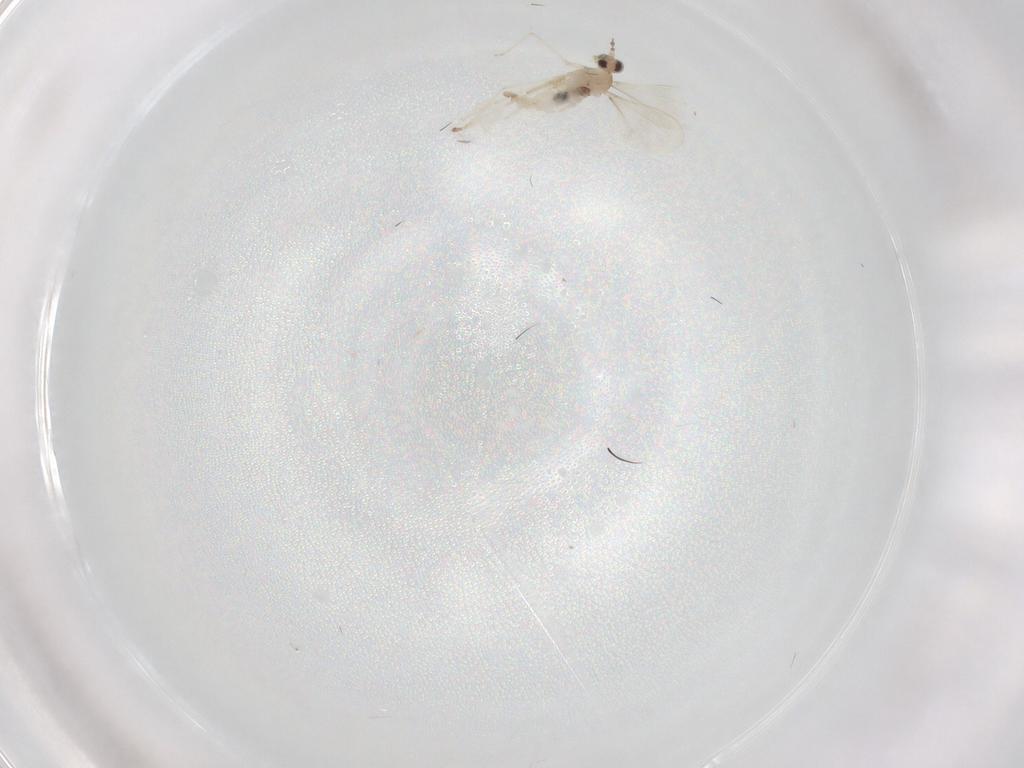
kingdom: Animalia
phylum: Arthropoda
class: Insecta
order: Diptera
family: Cecidomyiidae
